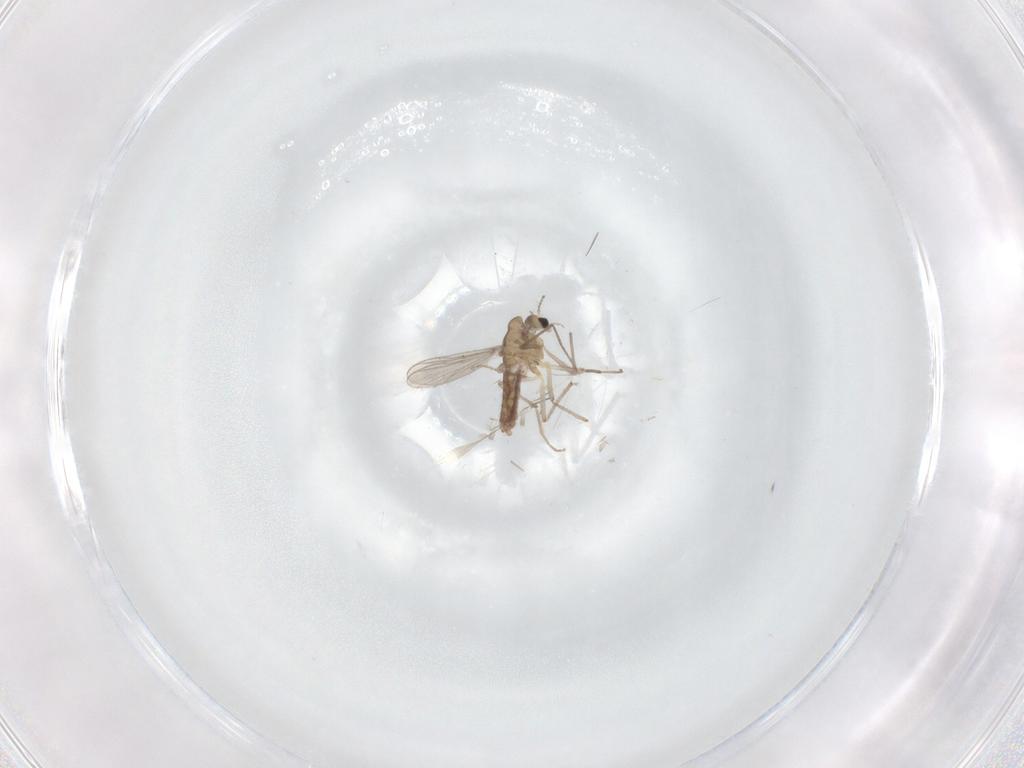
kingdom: Animalia
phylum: Arthropoda
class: Insecta
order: Diptera
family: Chironomidae
